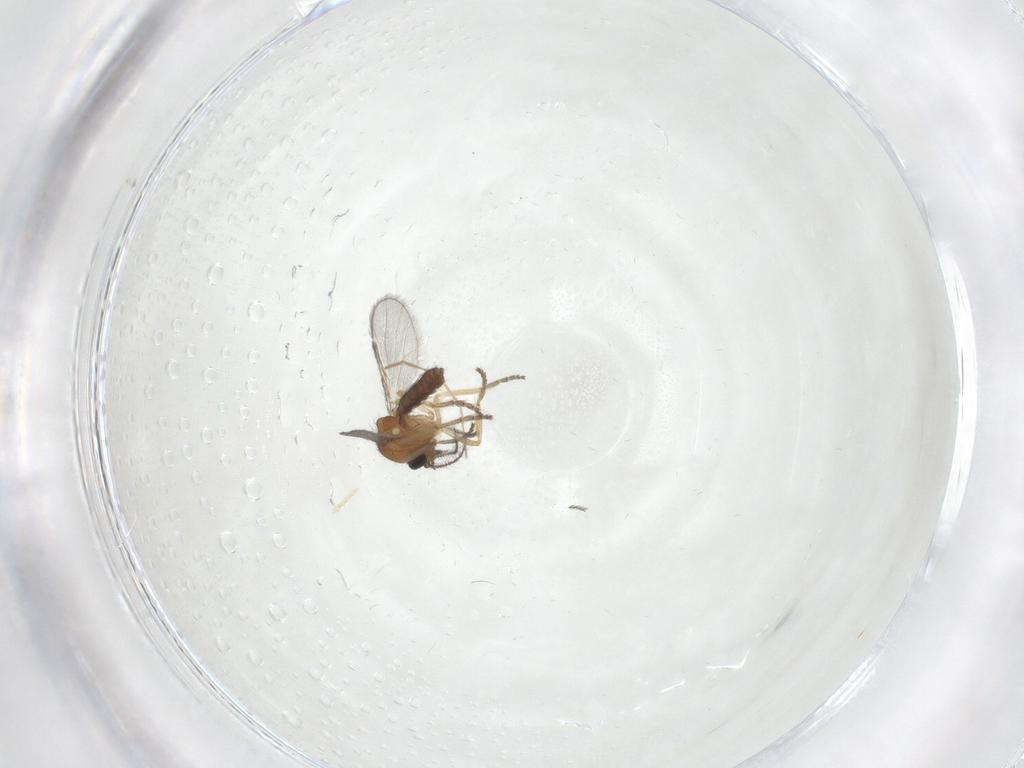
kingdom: Animalia
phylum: Arthropoda
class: Insecta
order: Diptera
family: Chironomidae
